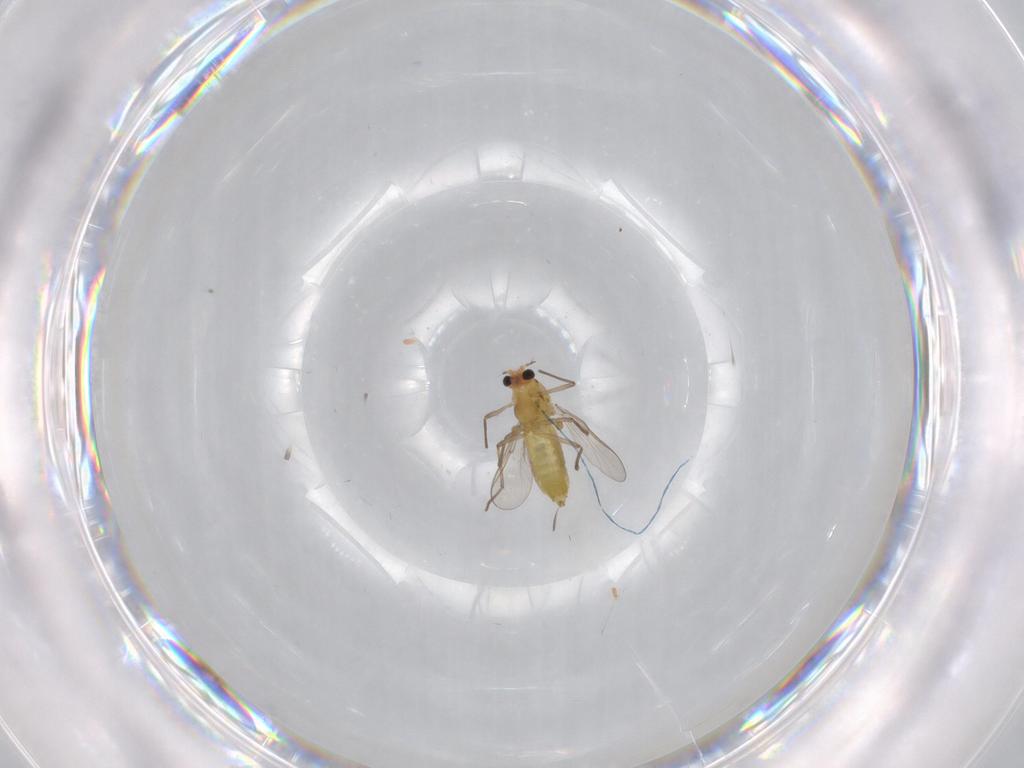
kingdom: Animalia
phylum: Arthropoda
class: Insecta
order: Diptera
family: Chironomidae
